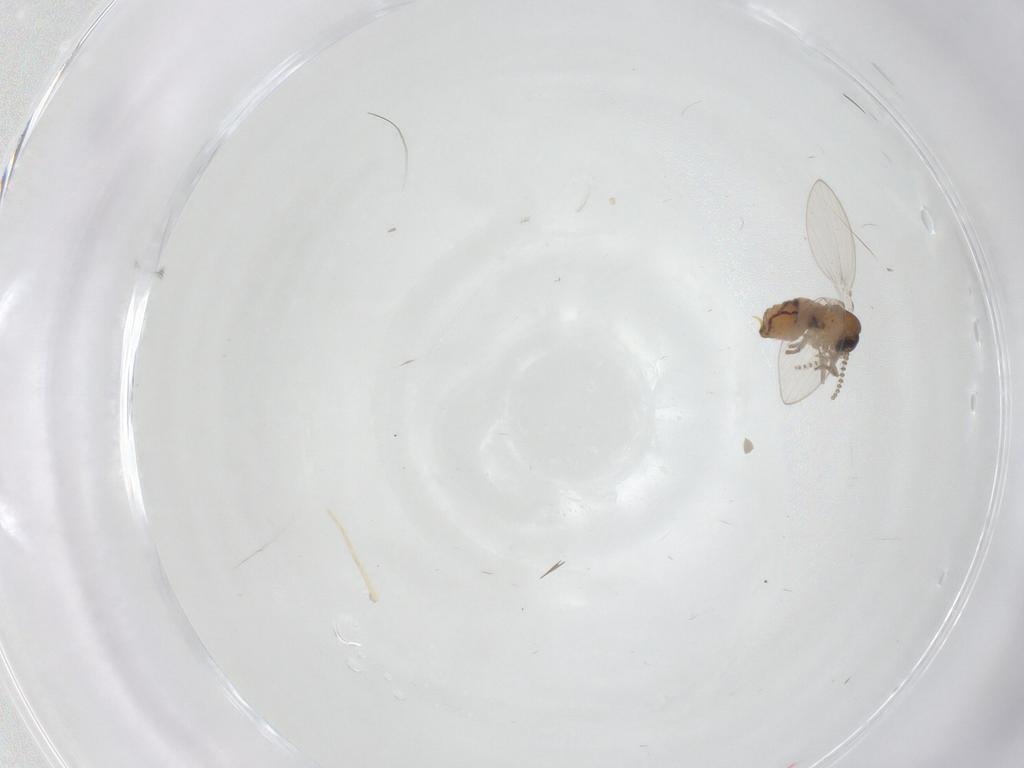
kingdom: Animalia
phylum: Arthropoda
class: Insecta
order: Diptera
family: Psychodidae
